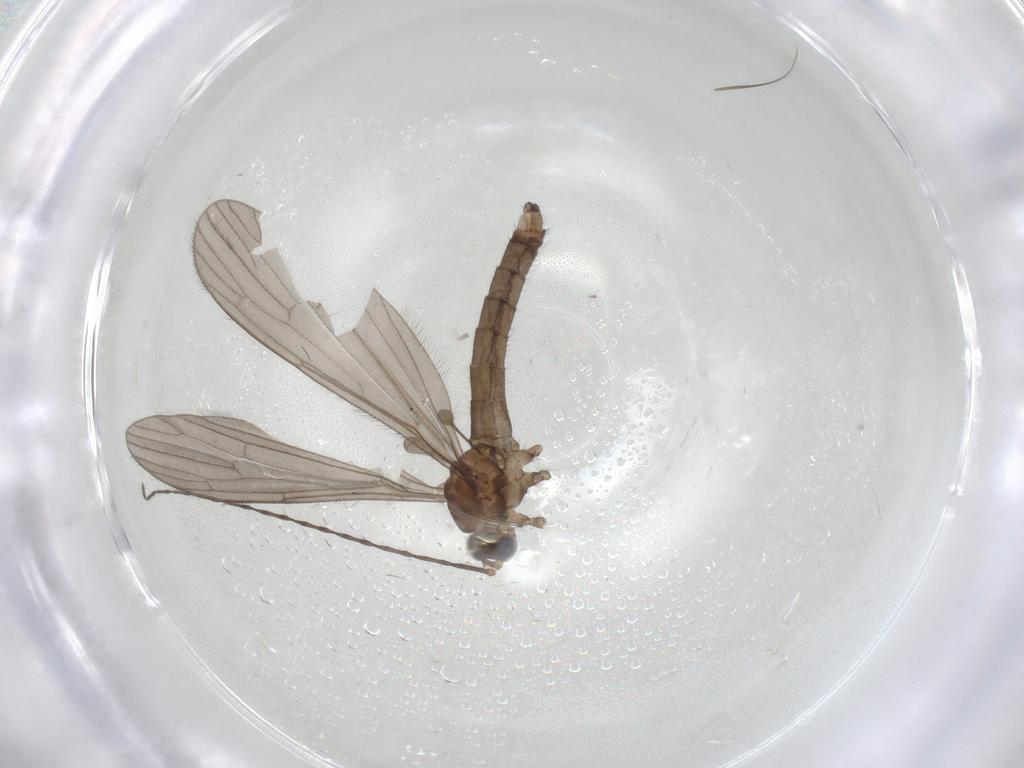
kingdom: Animalia
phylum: Arthropoda
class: Insecta
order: Diptera
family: Limoniidae
